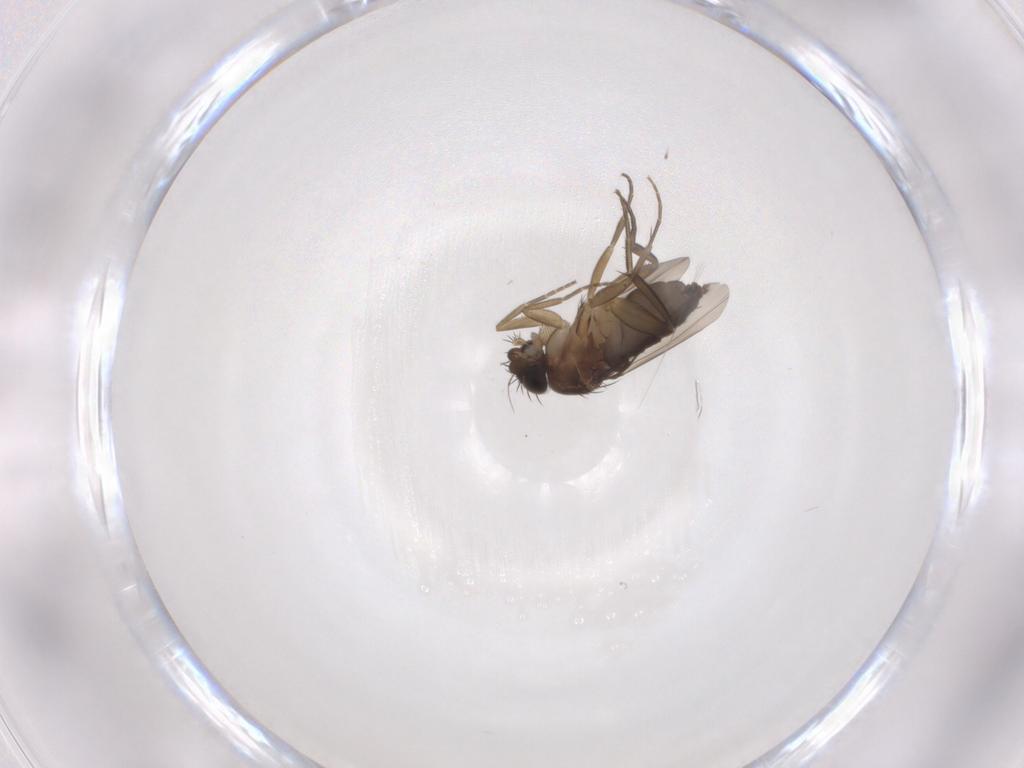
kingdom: Animalia
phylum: Arthropoda
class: Insecta
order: Diptera
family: Phoridae
